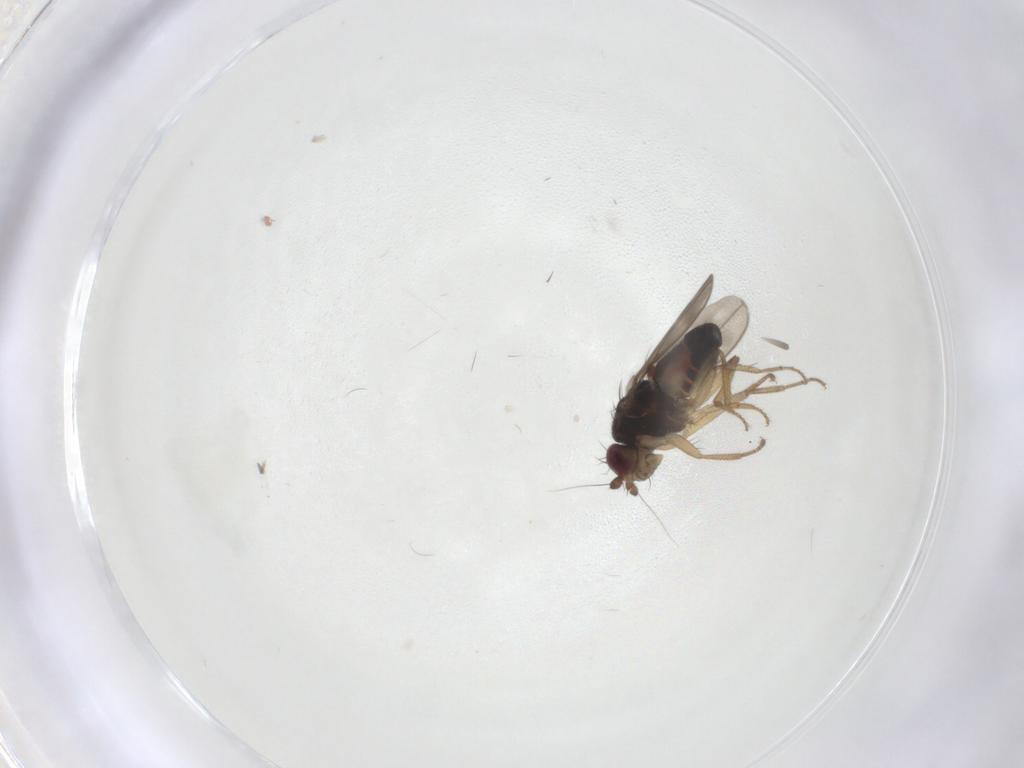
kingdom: Animalia
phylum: Arthropoda
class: Insecta
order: Diptera
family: Sphaeroceridae
